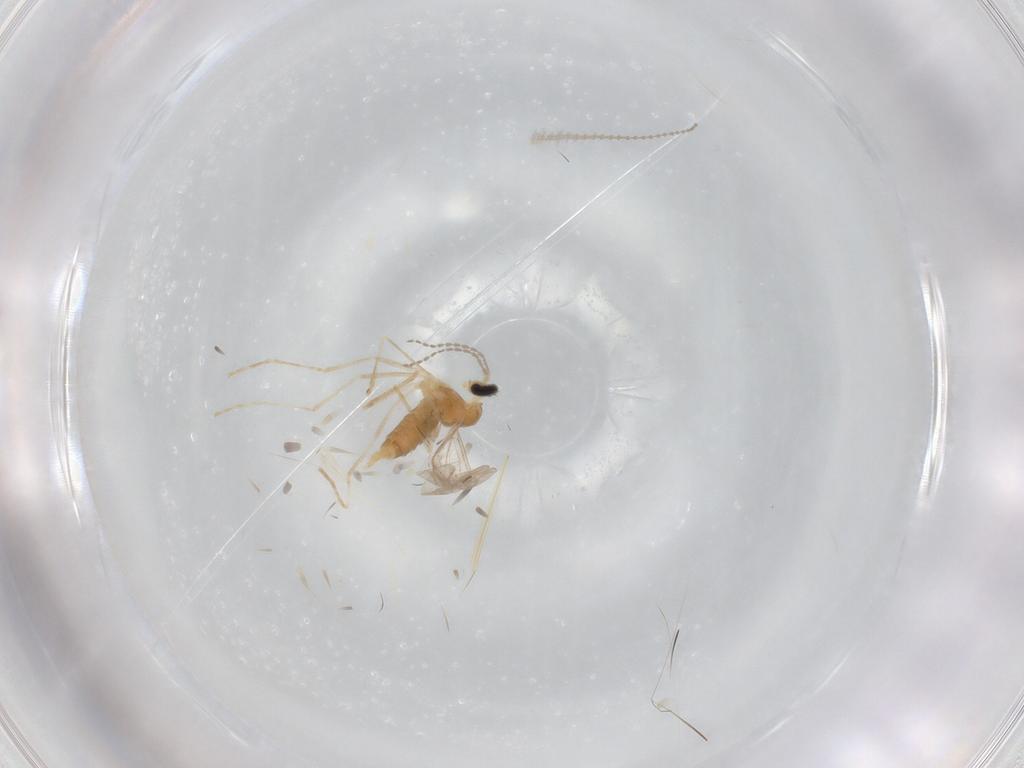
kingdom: Animalia
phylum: Arthropoda
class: Insecta
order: Diptera
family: Cecidomyiidae
